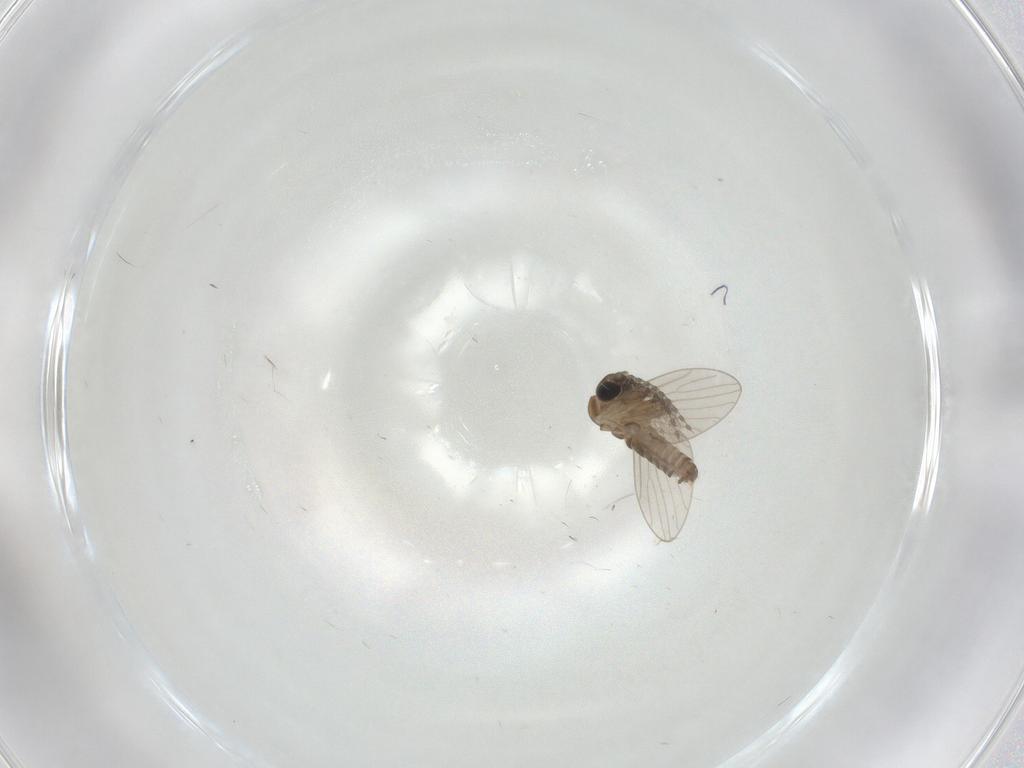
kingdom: Animalia
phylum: Arthropoda
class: Insecta
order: Diptera
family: Psychodidae
